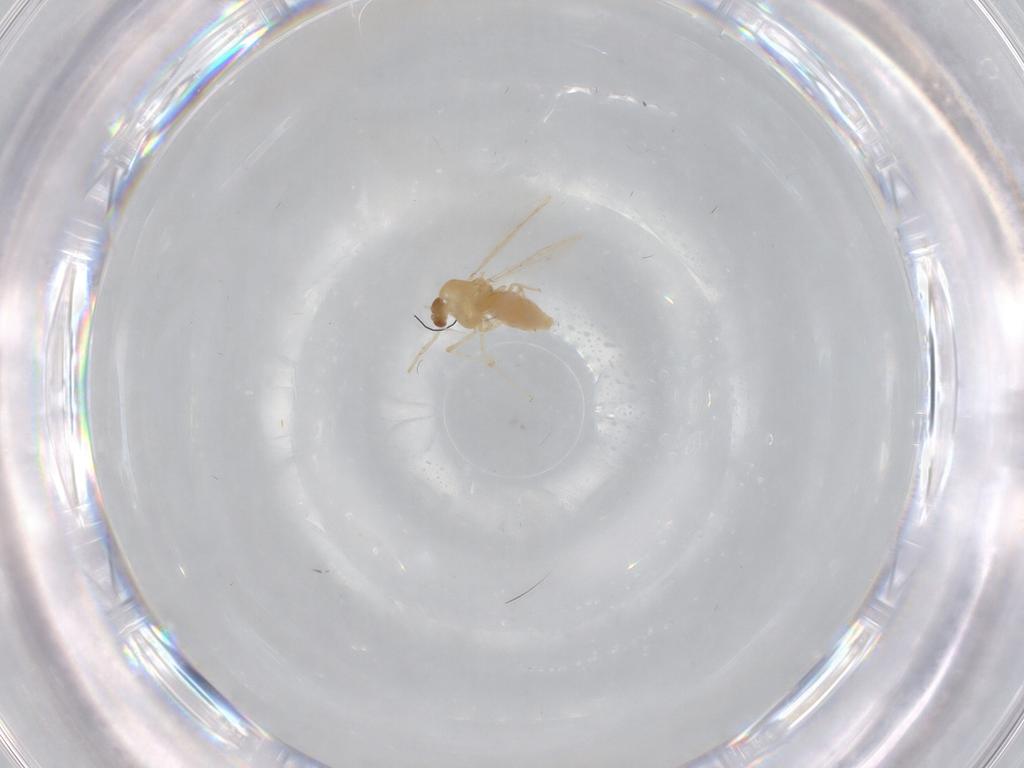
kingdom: Animalia
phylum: Arthropoda
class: Insecta
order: Diptera
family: Chironomidae
